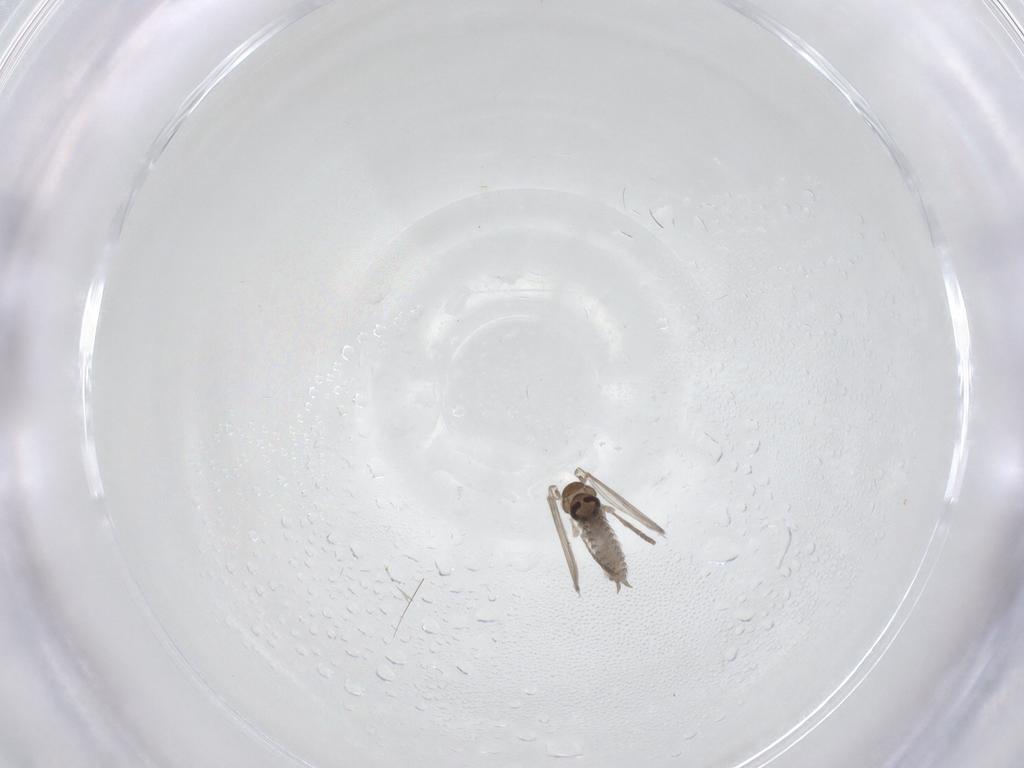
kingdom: Animalia
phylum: Arthropoda
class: Insecta
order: Diptera
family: Psychodidae
